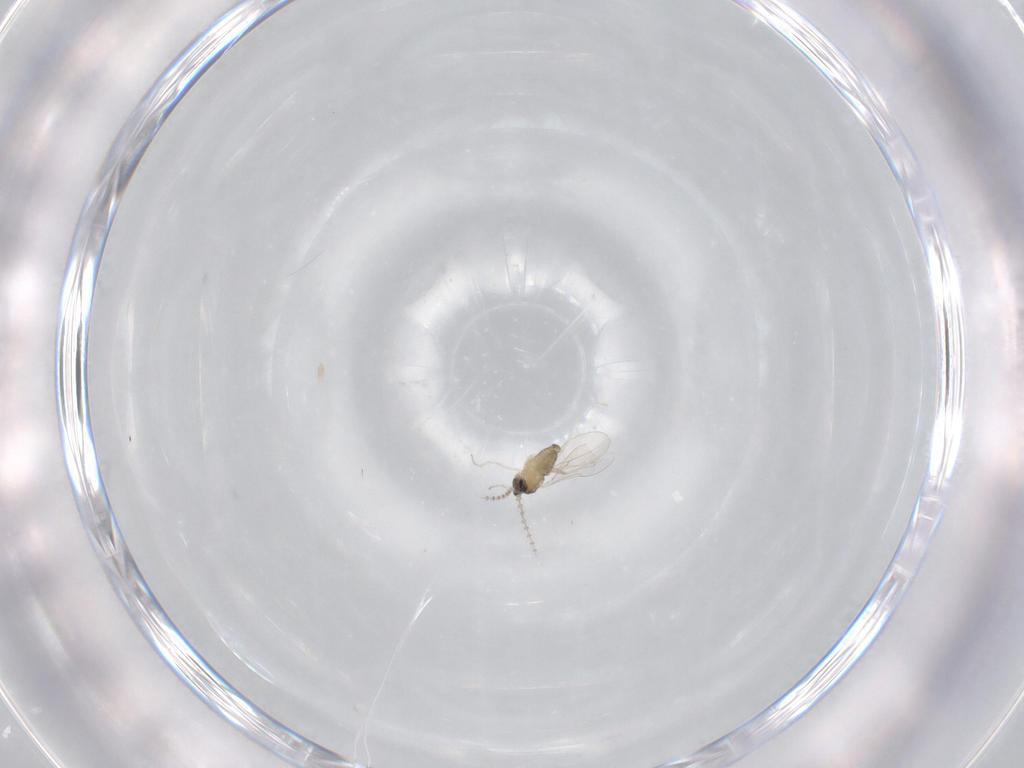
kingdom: Animalia
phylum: Arthropoda
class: Insecta
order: Diptera
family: Cecidomyiidae
